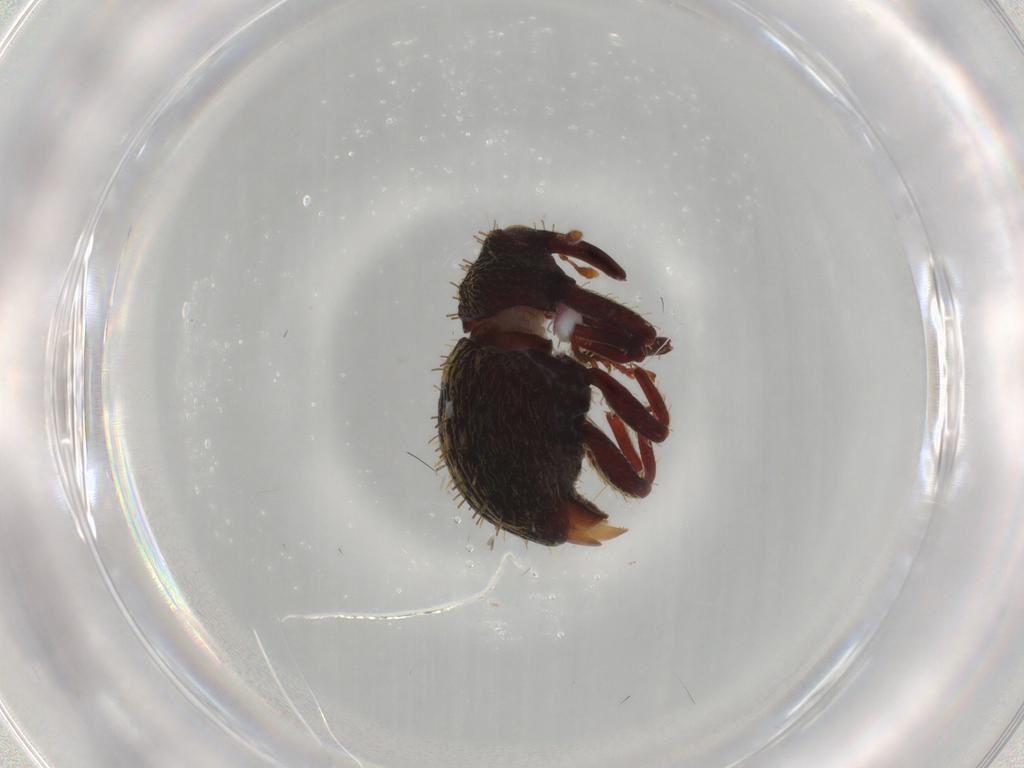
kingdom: Animalia
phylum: Arthropoda
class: Insecta
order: Coleoptera
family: Curculionidae
